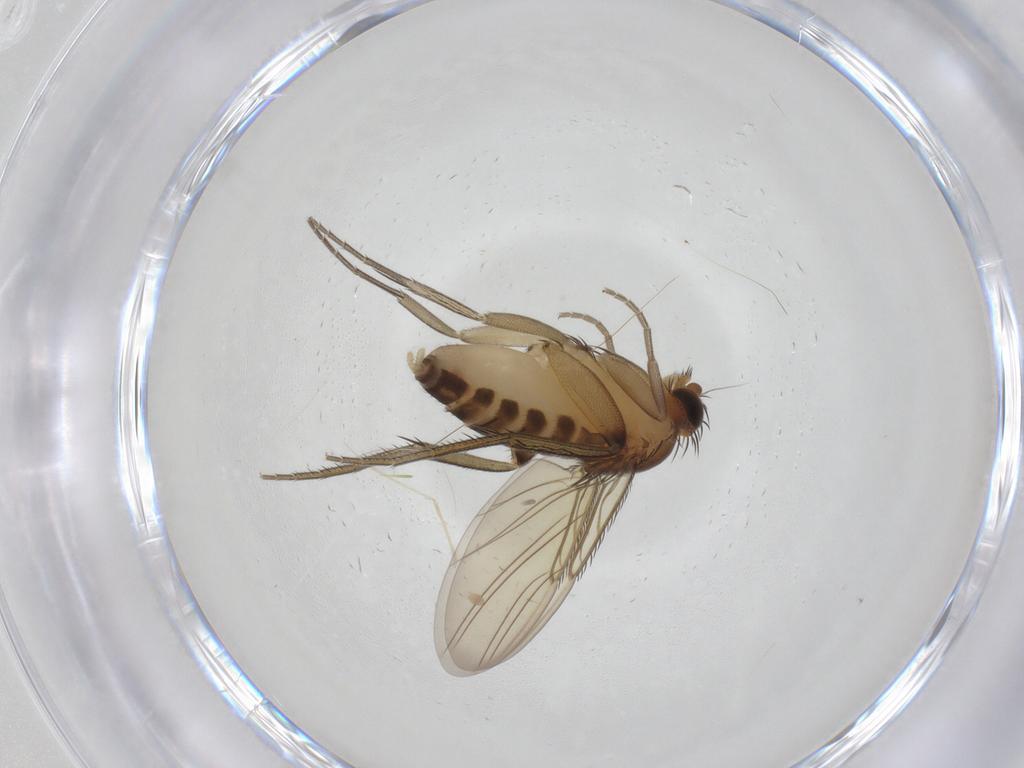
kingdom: Animalia
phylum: Arthropoda
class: Insecta
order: Diptera
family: Phoridae
